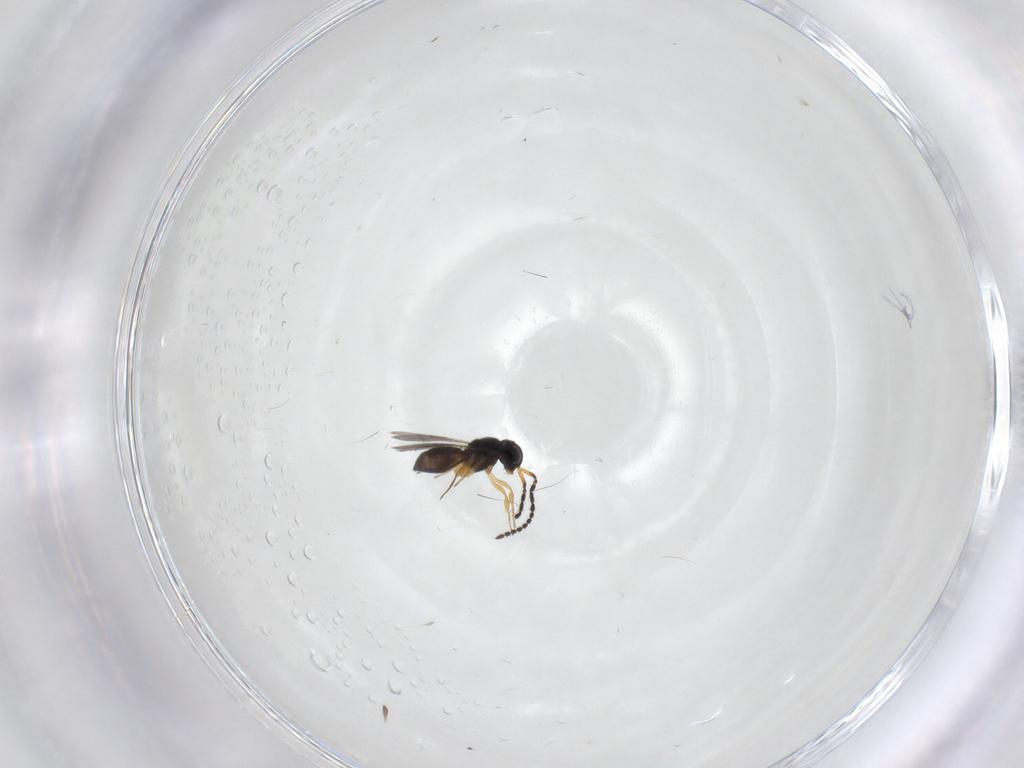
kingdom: Animalia
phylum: Arthropoda
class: Insecta
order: Hymenoptera
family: Scelionidae
